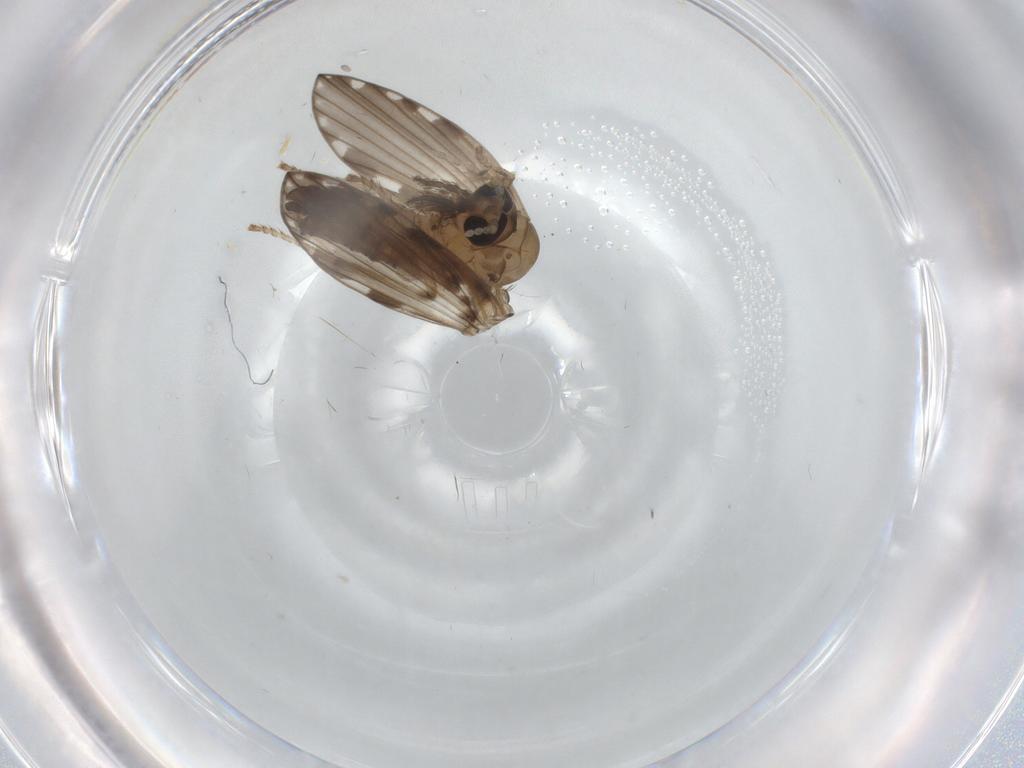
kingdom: Animalia
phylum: Arthropoda
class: Insecta
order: Diptera
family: Psychodidae
